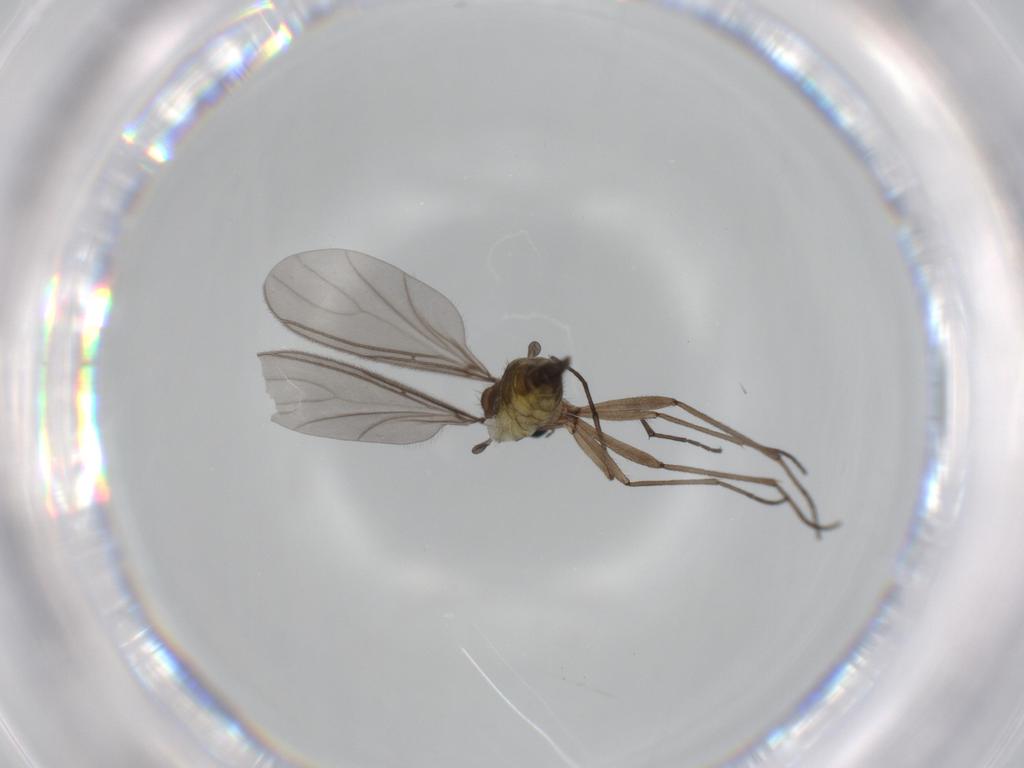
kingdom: Animalia
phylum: Arthropoda
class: Insecta
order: Diptera
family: Sciaridae
